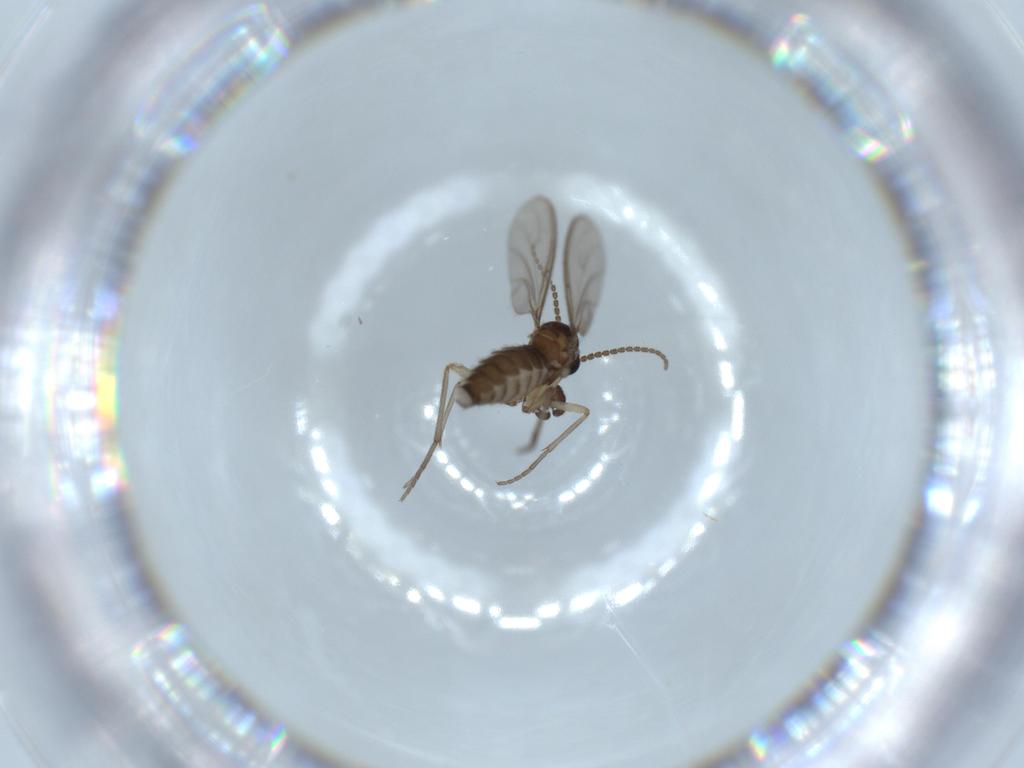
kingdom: Animalia
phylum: Arthropoda
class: Insecta
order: Diptera
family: Sciaridae
